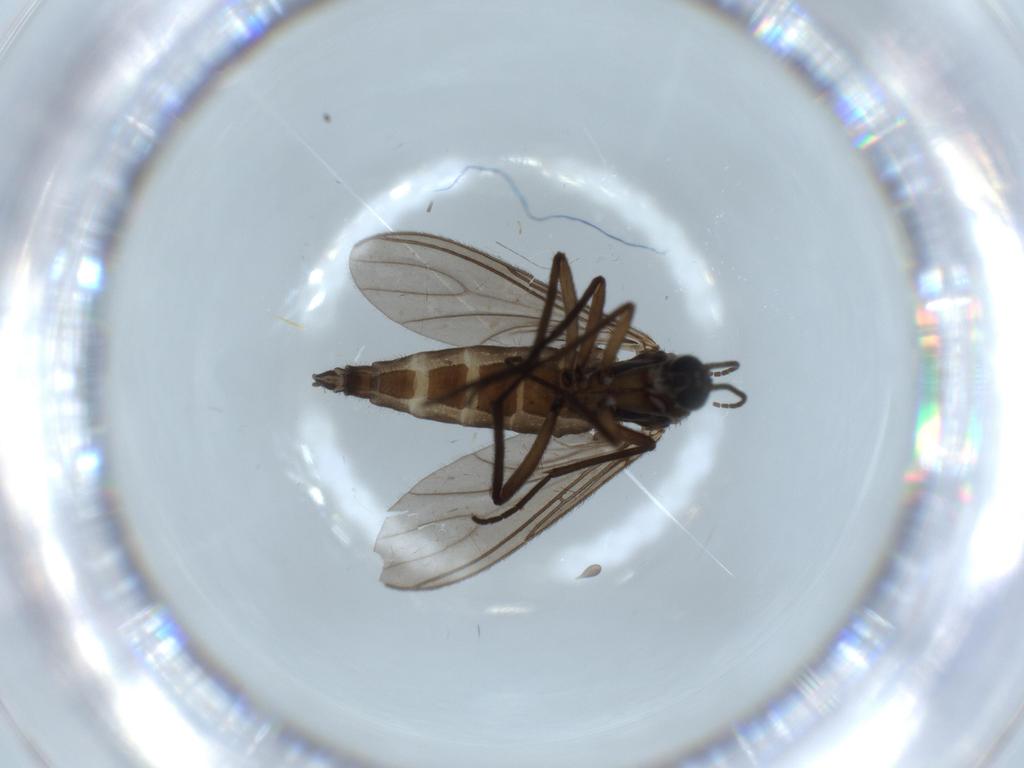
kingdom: Animalia
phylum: Arthropoda
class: Insecta
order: Diptera
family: Sciaridae
